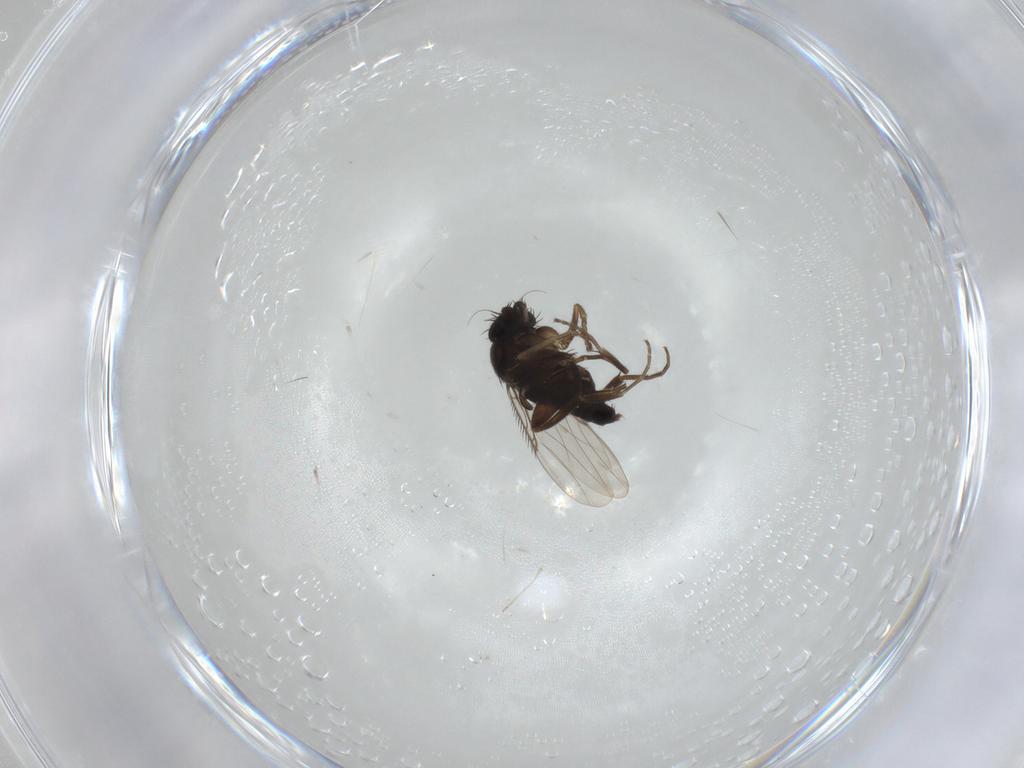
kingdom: Animalia
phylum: Arthropoda
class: Insecta
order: Diptera
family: Phoridae
